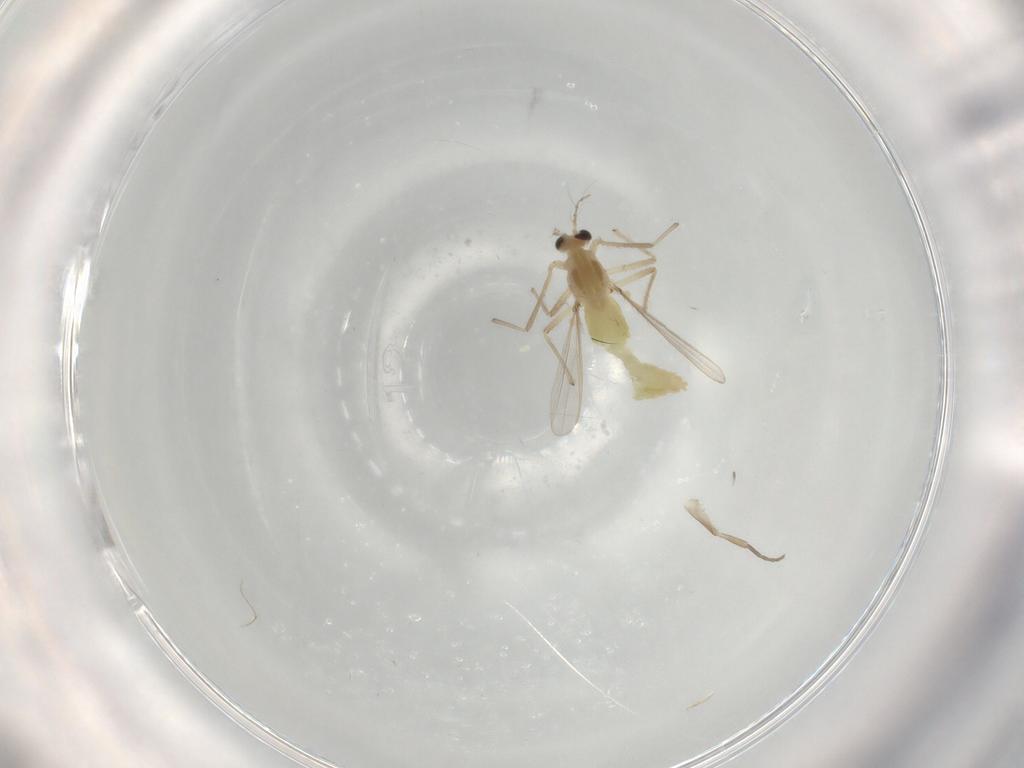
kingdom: Animalia
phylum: Arthropoda
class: Insecta
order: Diptera
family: Chironomidae
